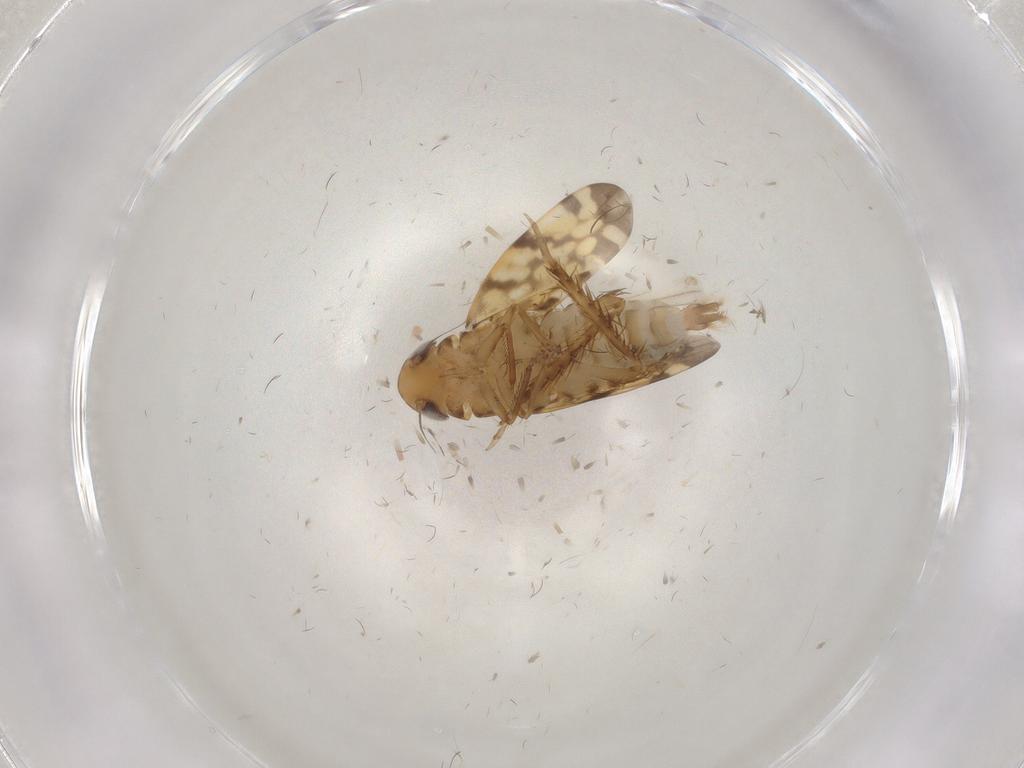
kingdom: Animalia
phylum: Arthropoda
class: Insecta
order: Hemiptera
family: Cicadellidae
